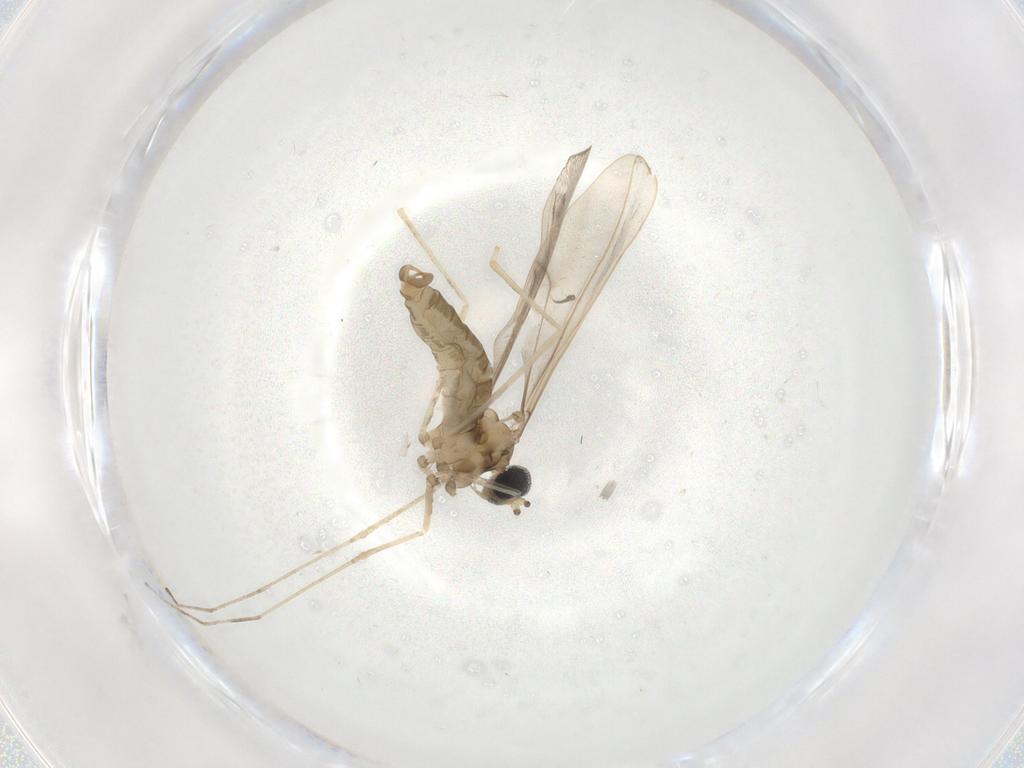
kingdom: Animalia
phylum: Arthropoda
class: Insecta
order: Diptera
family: Cecidomyiidae
